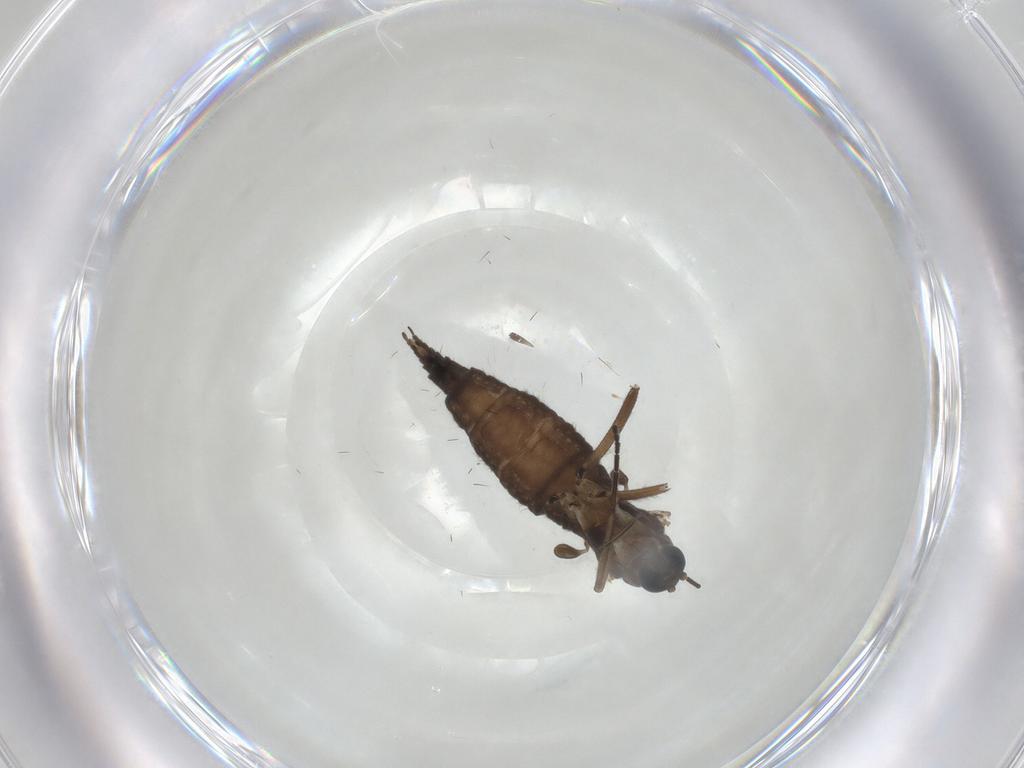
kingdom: Animalia
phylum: Arthropoda
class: Insecta
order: Diptera
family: Sciaridae
